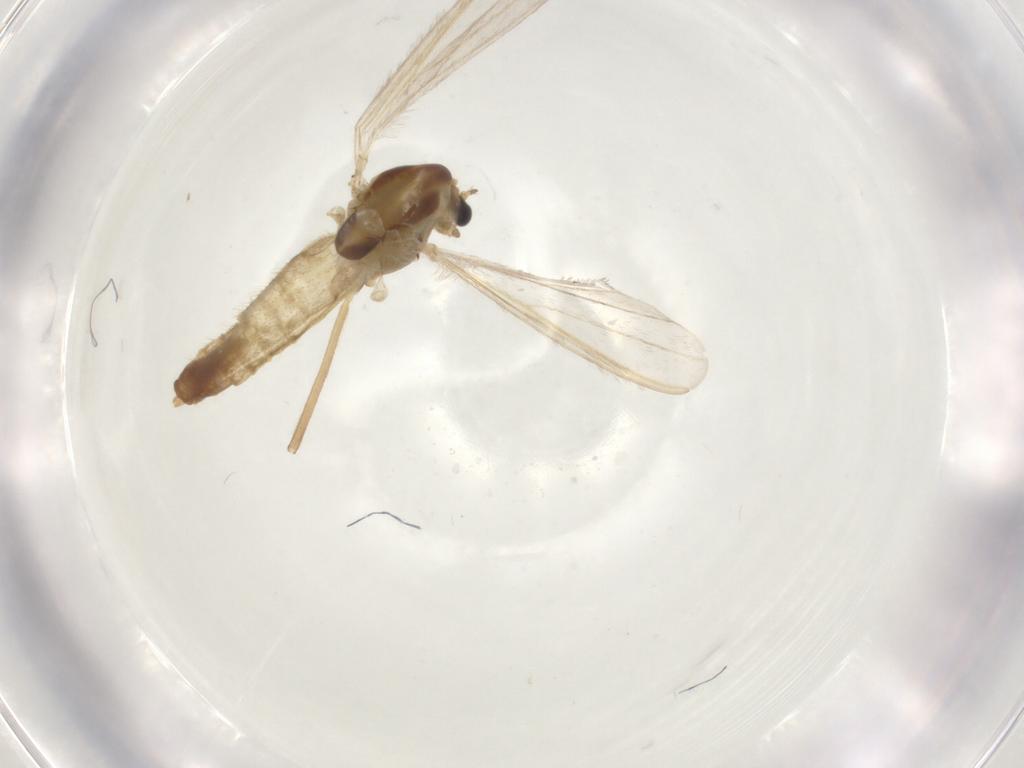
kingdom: Animalia
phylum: Arthropoda
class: Insecta
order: Diptera
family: Chironomidae
